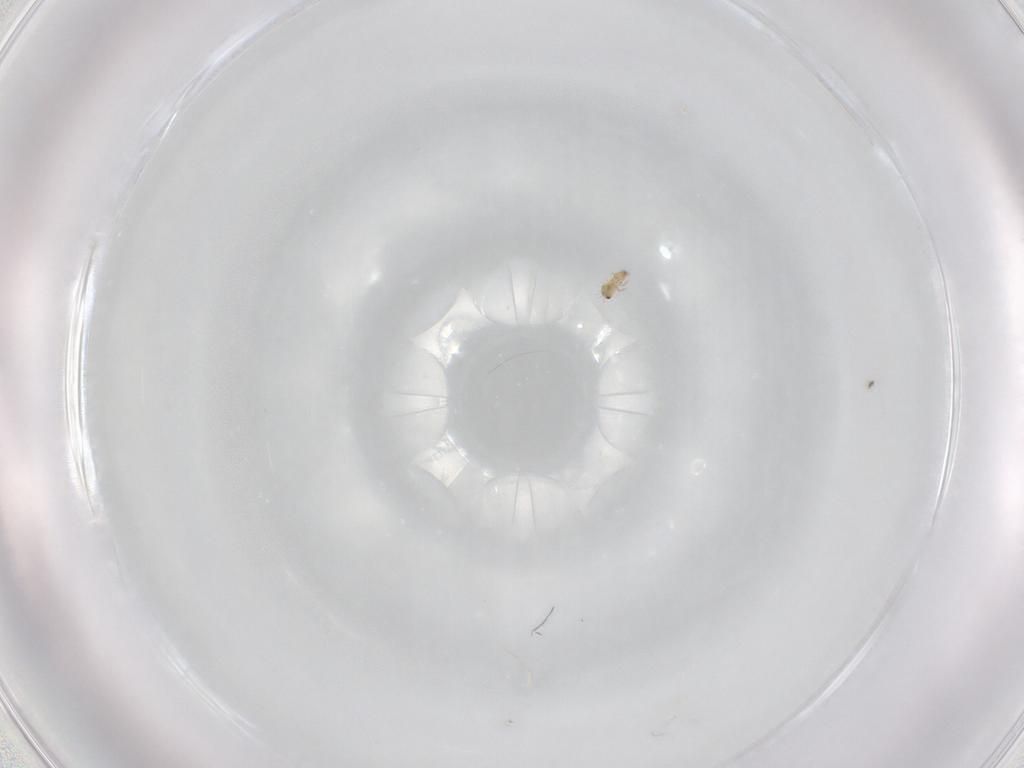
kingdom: Animalia
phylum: Arthropoda
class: Arachnida
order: Sarcoptiformes
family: Humerobatidae
